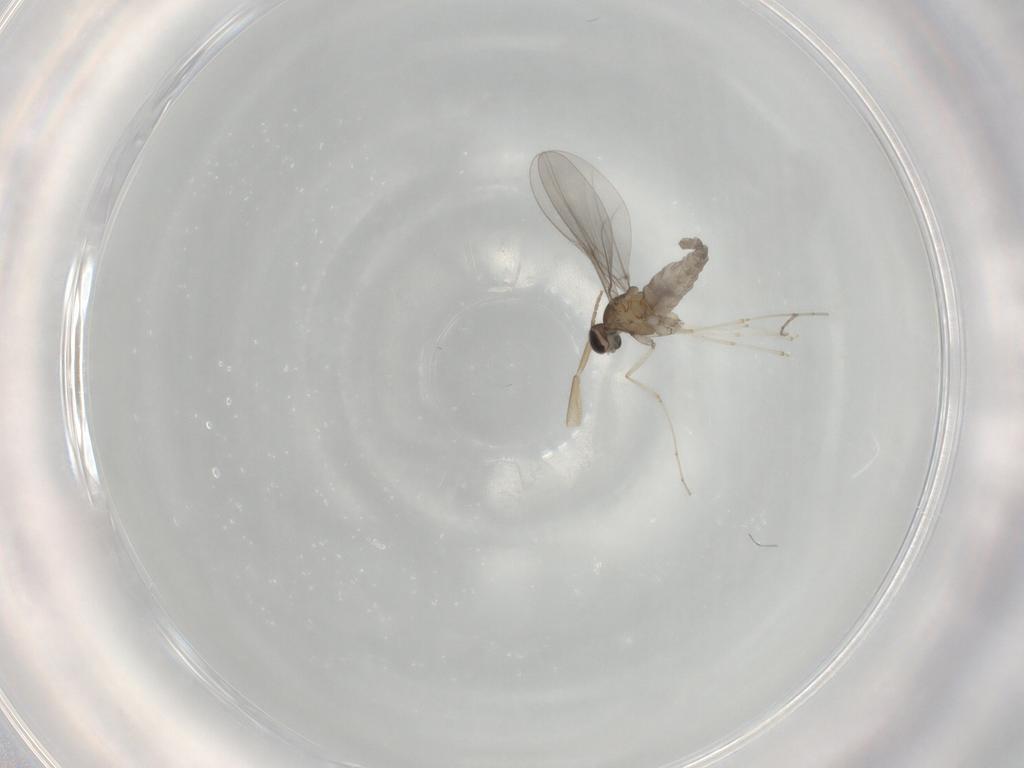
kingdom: Animalia
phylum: Arthropoda
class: Insecta
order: Diptera
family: Cecidomyiidae
